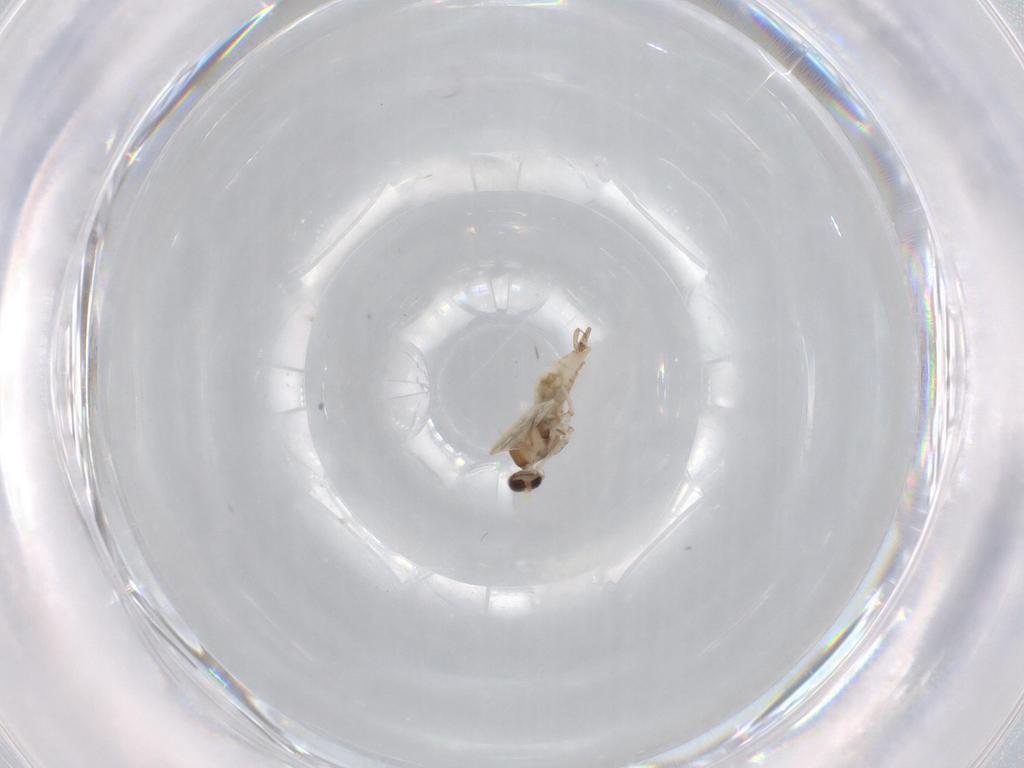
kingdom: Animalia
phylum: Arthropoda
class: Insecta
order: Diptera
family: Cecidomyiidae
